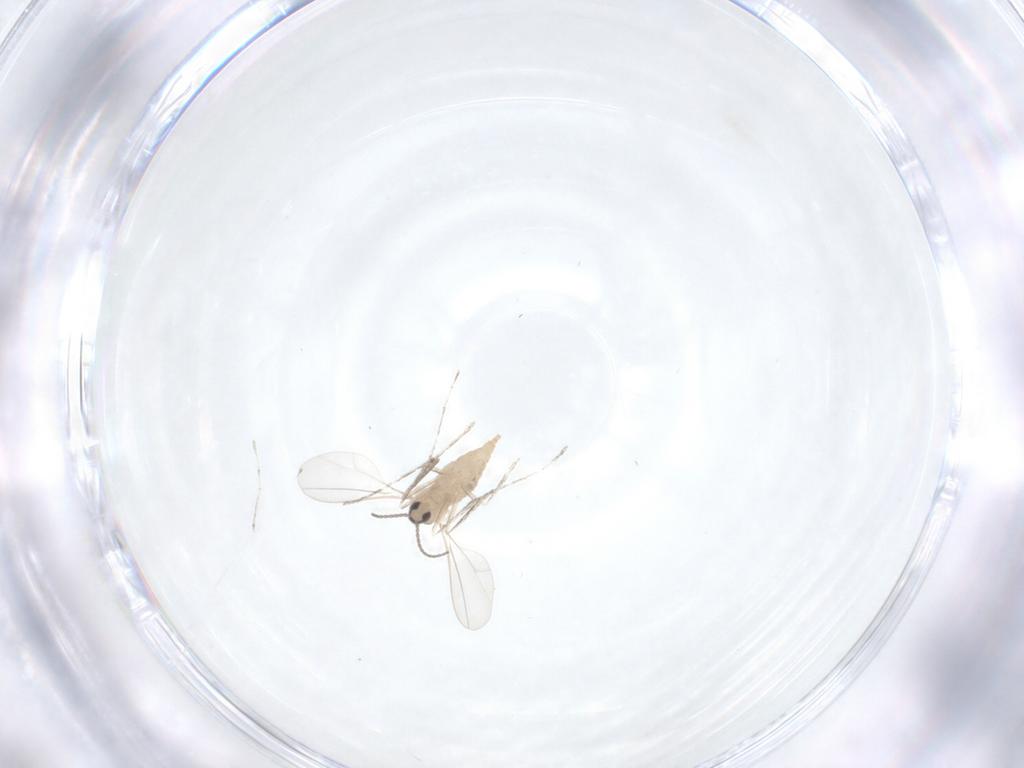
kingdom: Animalia
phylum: Arthropoda
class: Insecta
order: Diptera
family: Cecidomyiidae
